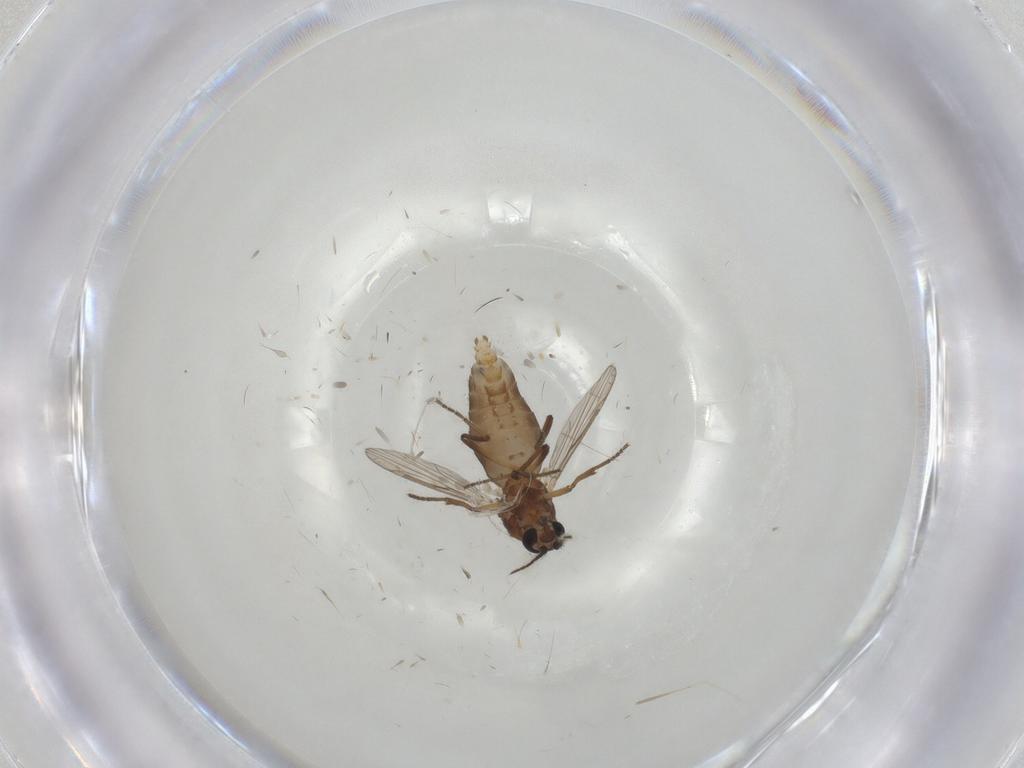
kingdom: Animalia
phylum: Arthropoda
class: Insecta
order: Diptera
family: Ceratopogonidae
